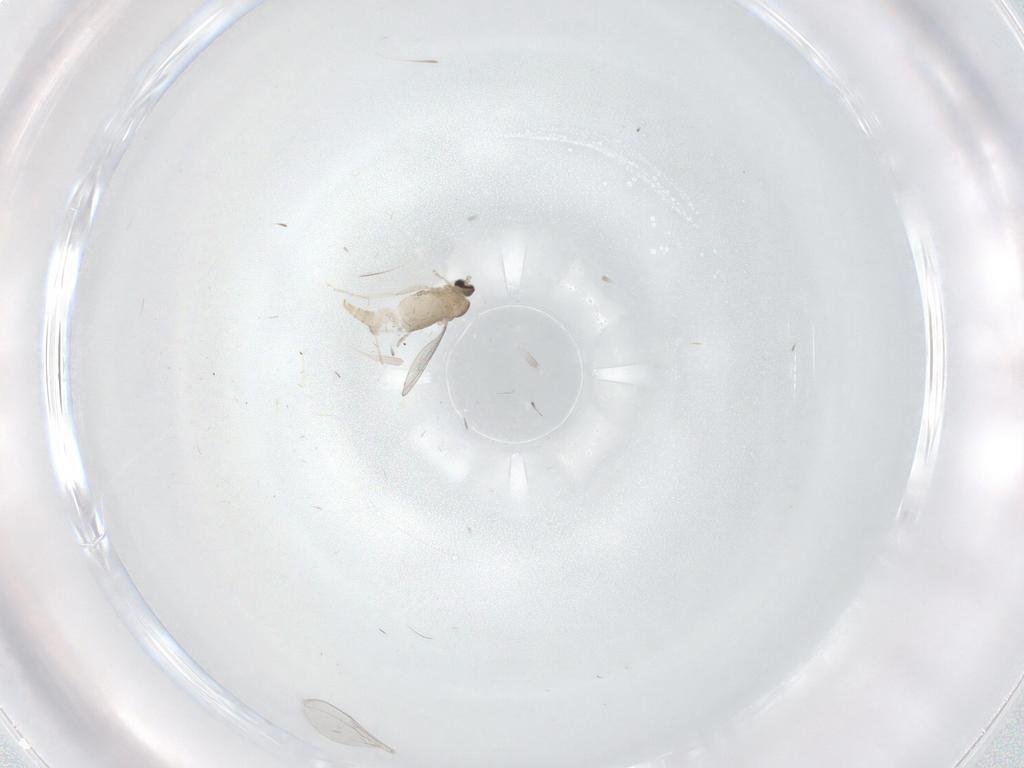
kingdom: Animalia
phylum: Arthropoda
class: Insecta
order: Diptera
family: Cecidomyiidae
